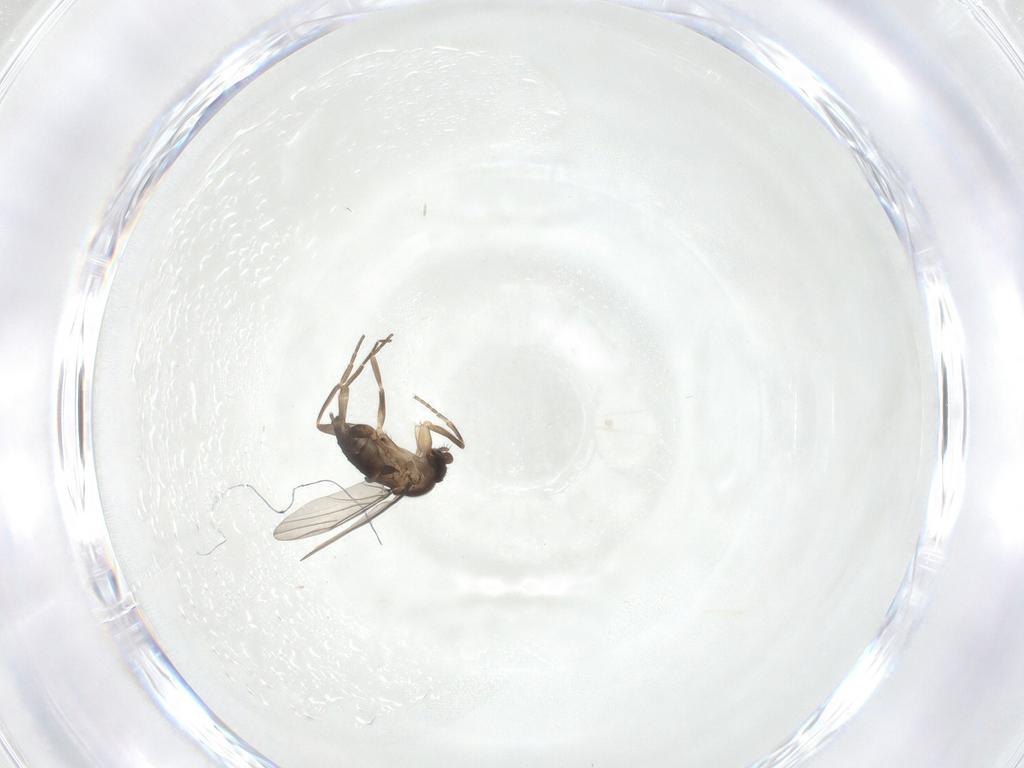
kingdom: Animalia
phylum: Arthropoda
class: Insecta
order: Diptera
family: Phoridae
